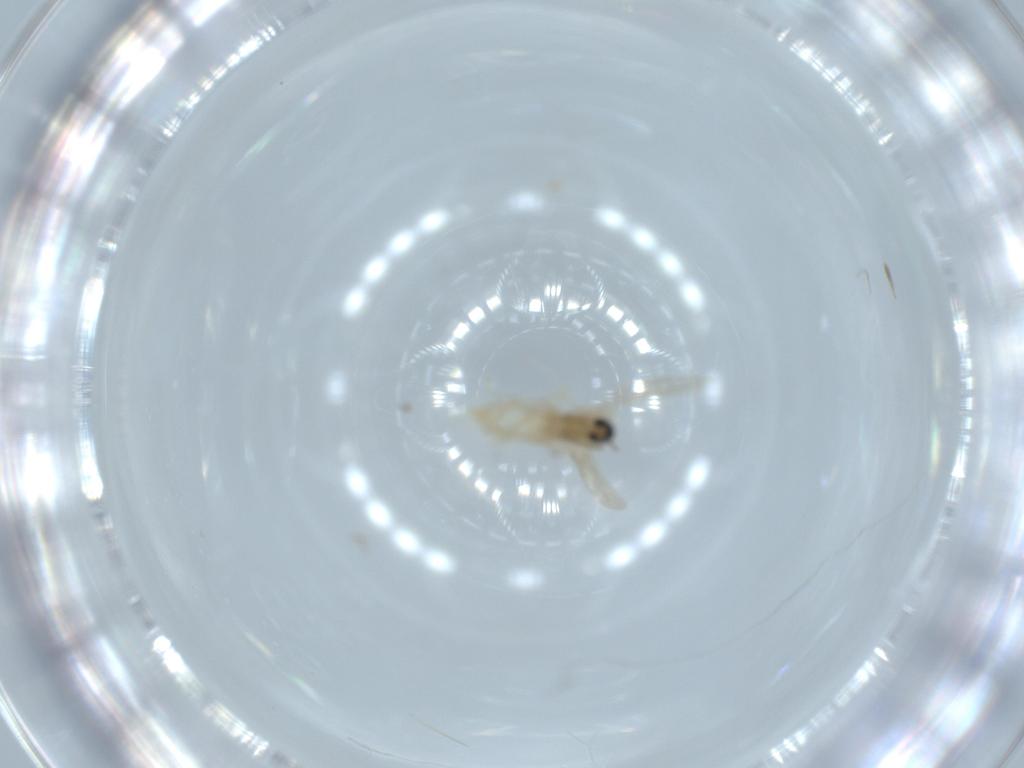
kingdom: Animalia
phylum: Arthropoda
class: Insecta
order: Diptera
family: Cecidomyiidae
